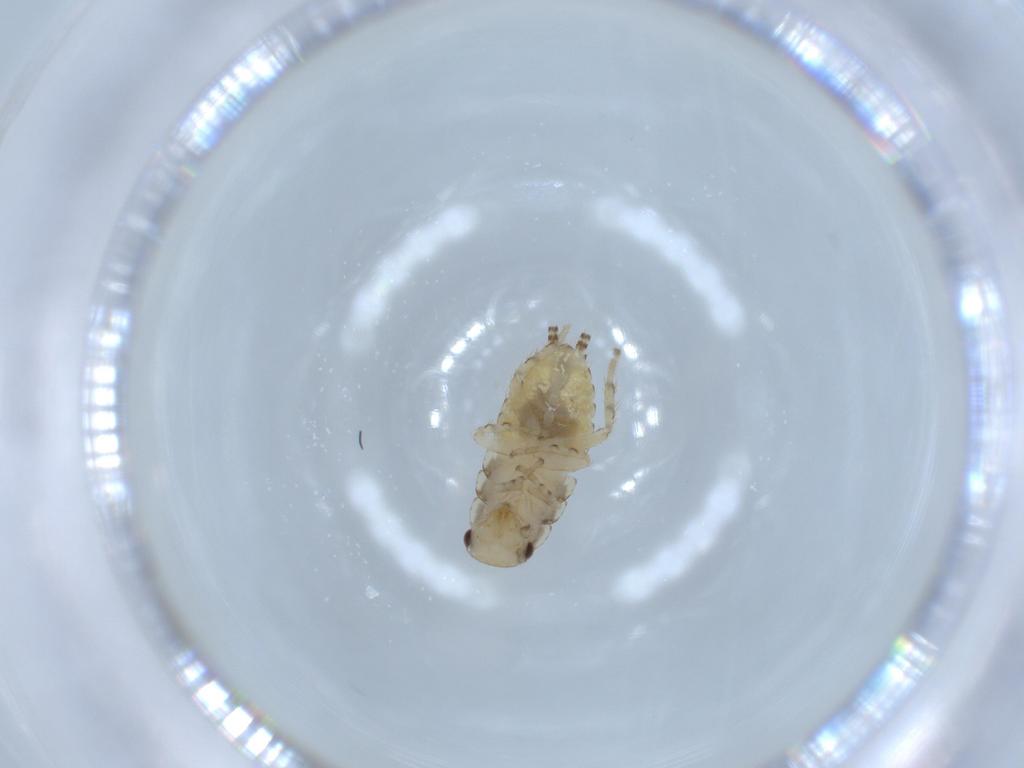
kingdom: Animalia
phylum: Arthropoda
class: Insecta
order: Blattodea
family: Ectobiidae
